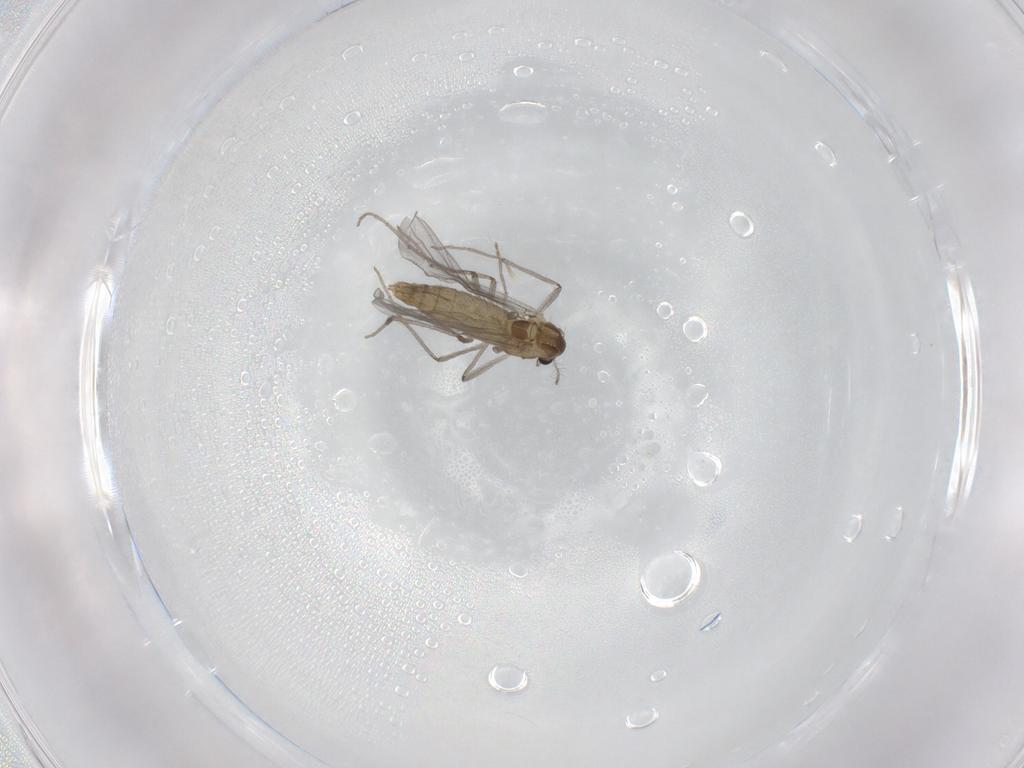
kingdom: Animalia
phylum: Arthropoda
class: Insecta
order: Diptera
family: Chironomidae
